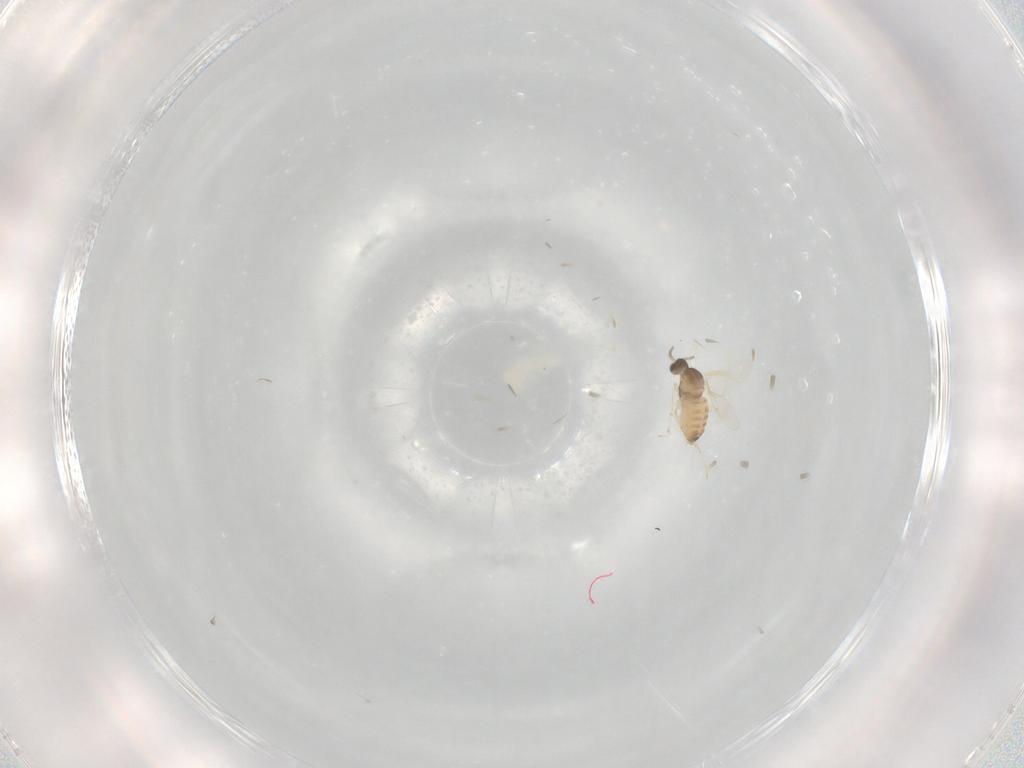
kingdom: Animalia
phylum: Arthropoda
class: Insecta
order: Diptera
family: Cecidomyiidae
